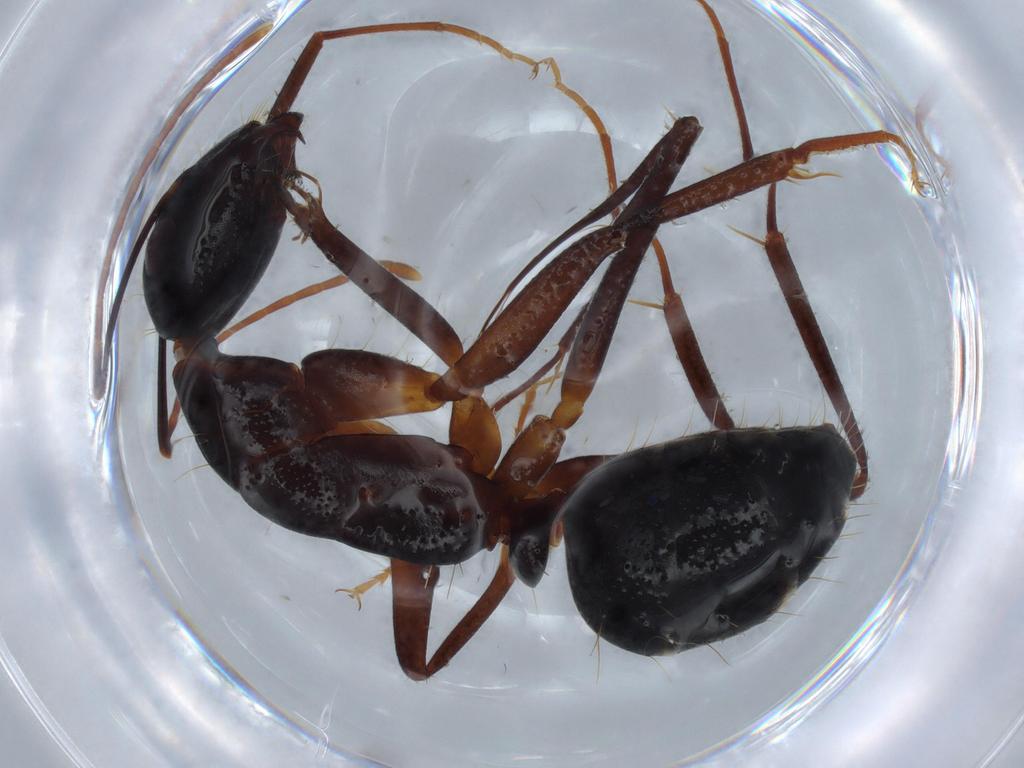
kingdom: Animalia
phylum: Arthropoda
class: Insecta
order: Hymenoptera
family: Formicidae
